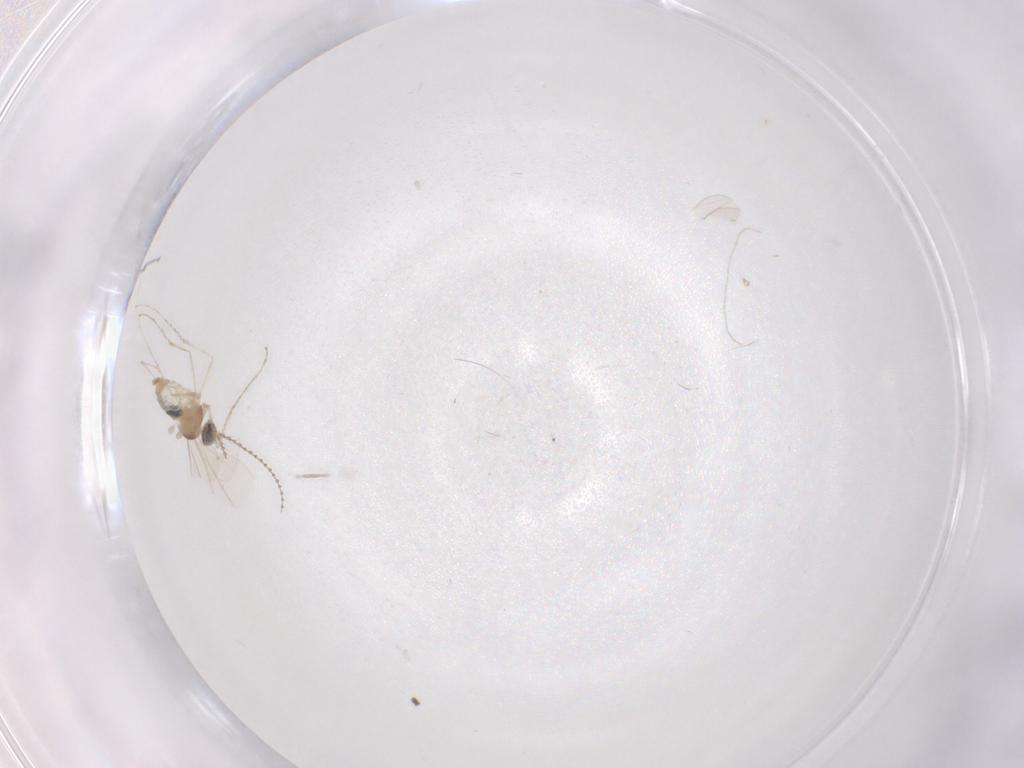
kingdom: Animalia
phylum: Arthropoda
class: Insecta
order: Diptera
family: Cecidomyiidae
